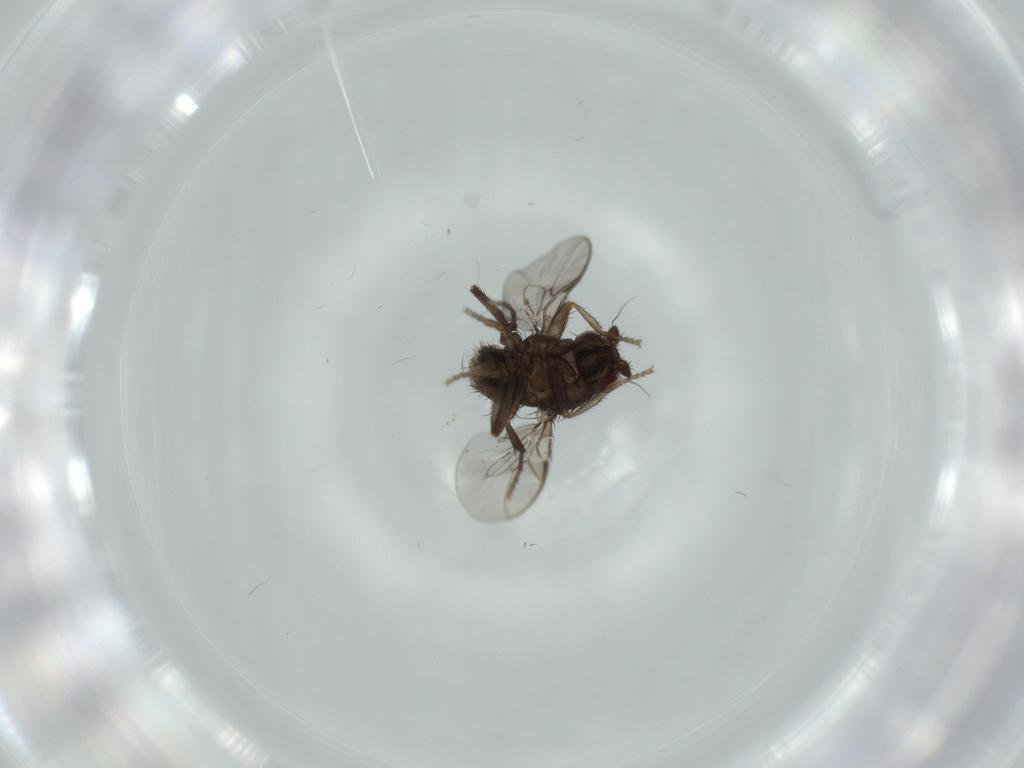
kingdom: Animalia
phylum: Arthropoda
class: Insecta
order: Diptera
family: Sphaeroceridae
